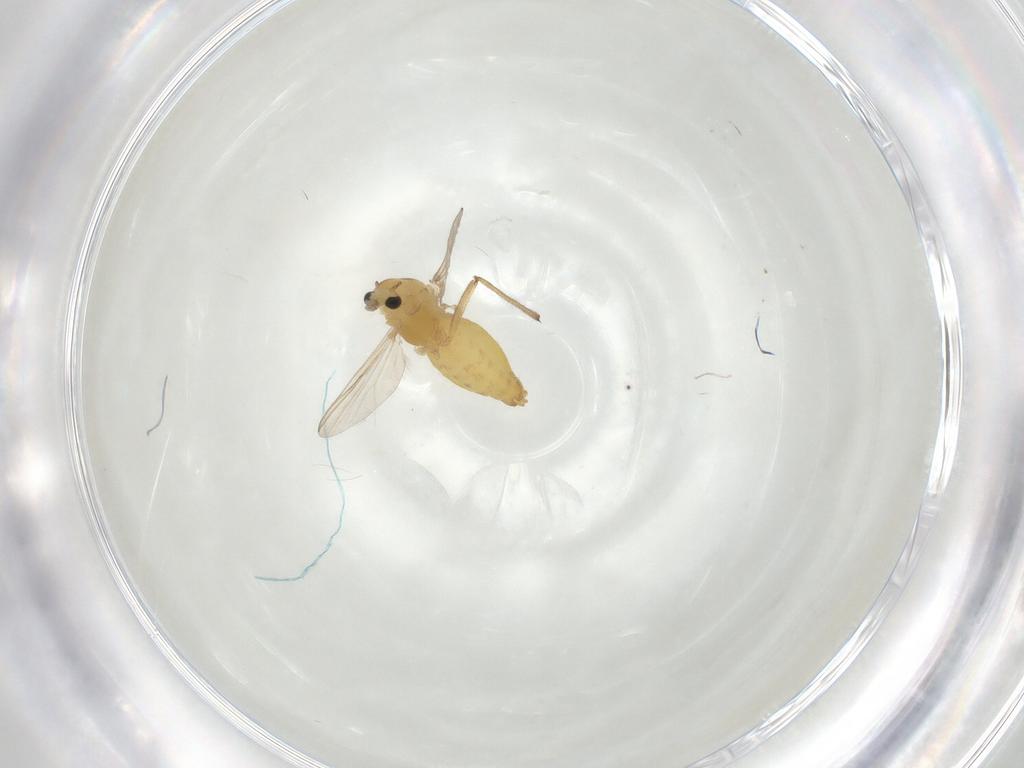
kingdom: Animalia
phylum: Arthropoda
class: Insecta
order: Diptera
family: Chironomidae
